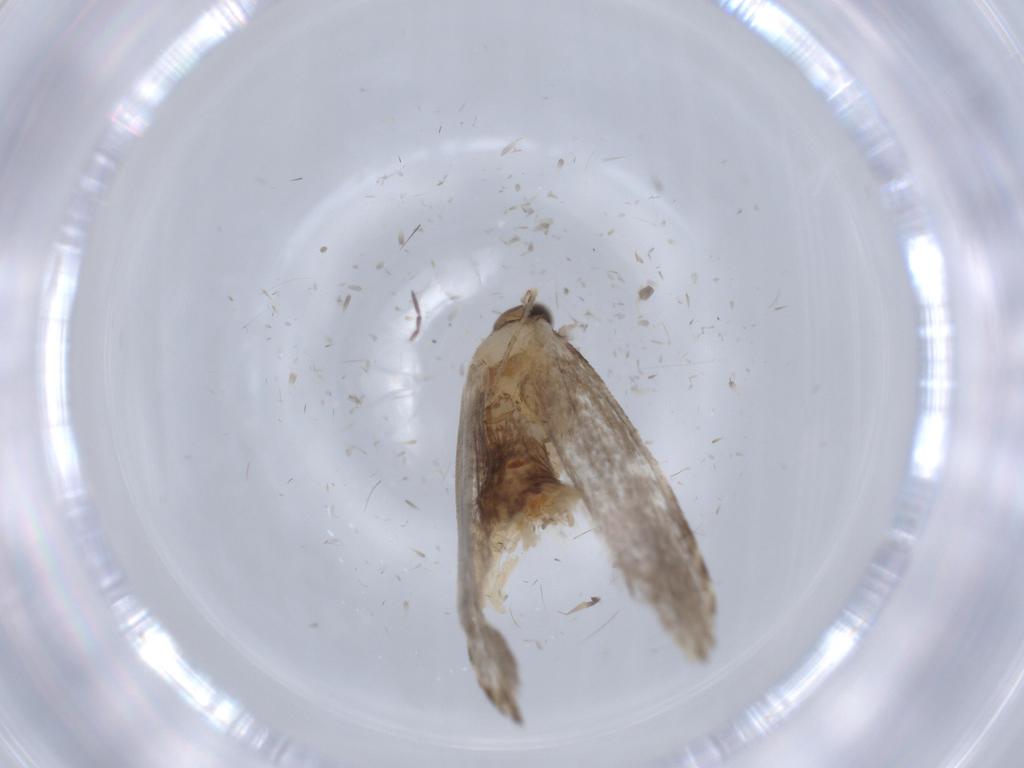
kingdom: Animalia
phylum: Arthropoda
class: Insecta
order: Lepidoptera
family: Tineidae
